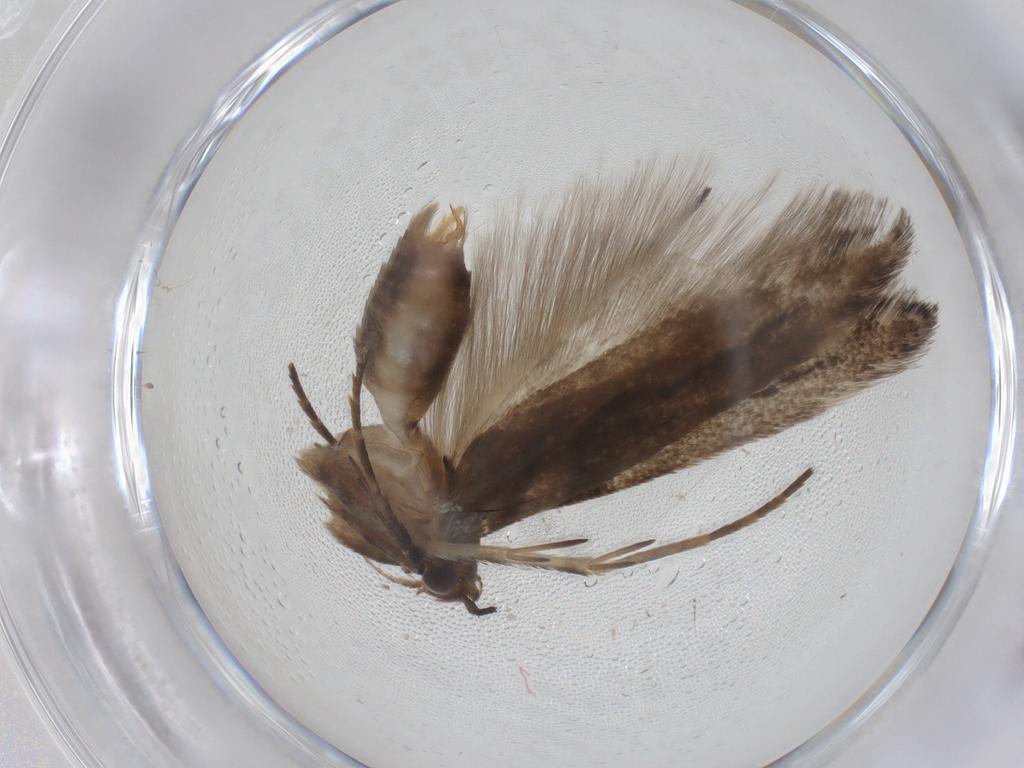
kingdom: Animalia
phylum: Arthropoda
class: Insecta
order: Lepidoptera
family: Gelechiidae
